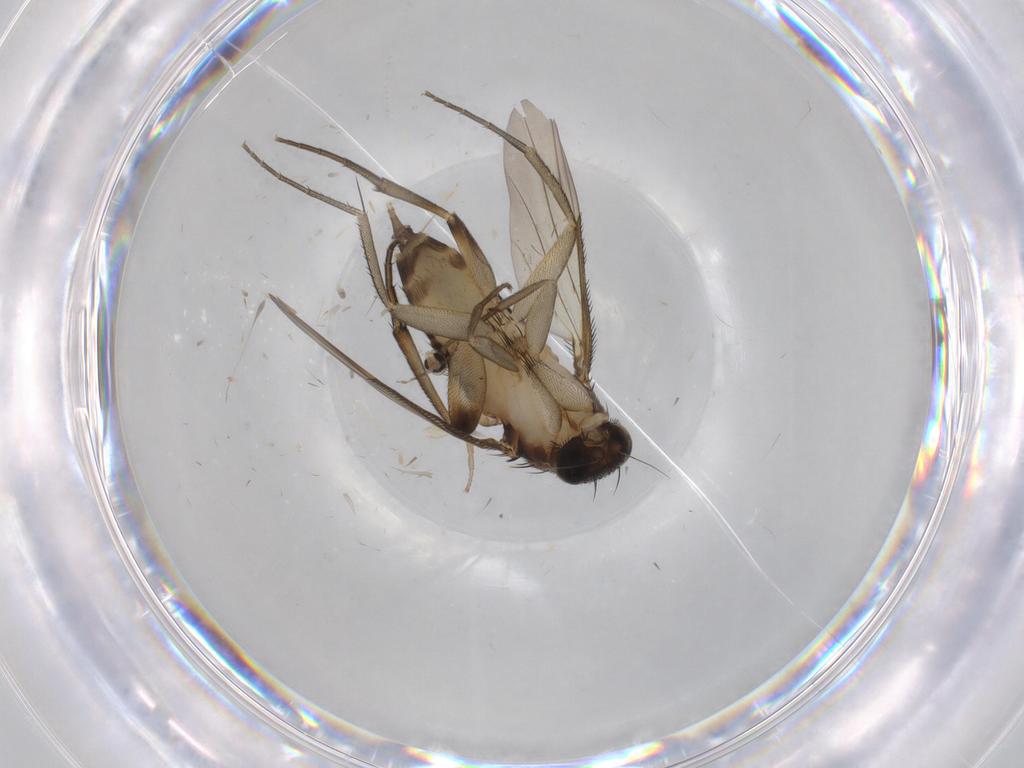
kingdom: Animalia
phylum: Arthropoda
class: Insecta
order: Diptera
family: Phoridae
